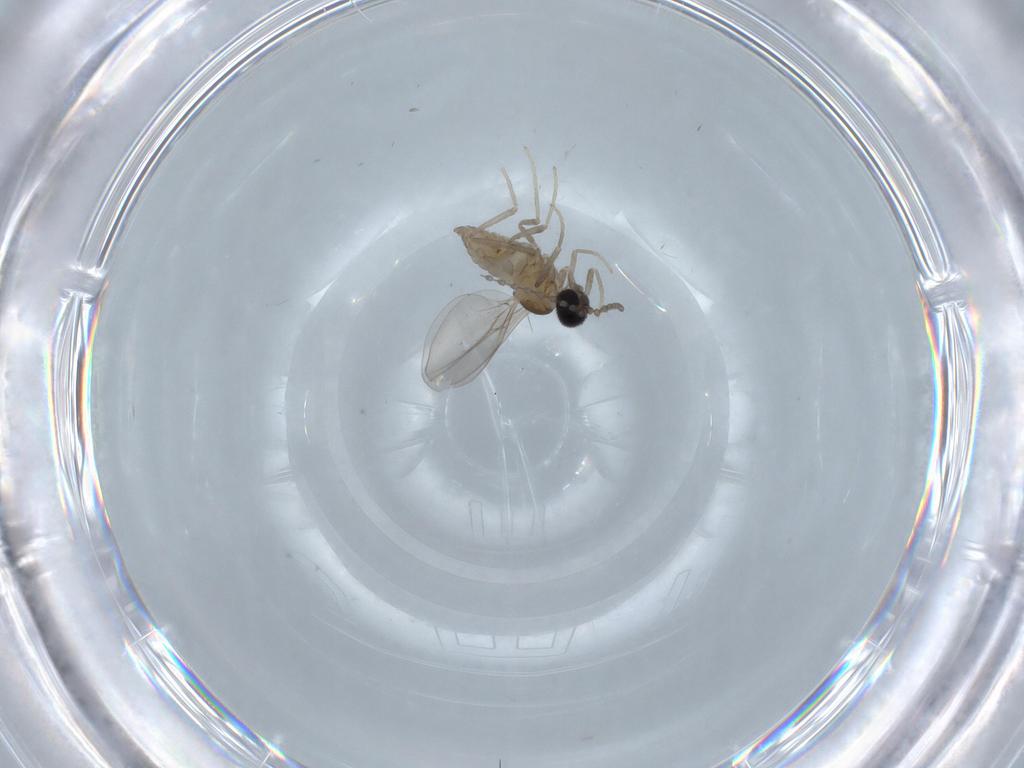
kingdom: Animalia
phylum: Arthropoda
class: Insecta
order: Diptera
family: Cecidomyiidae
